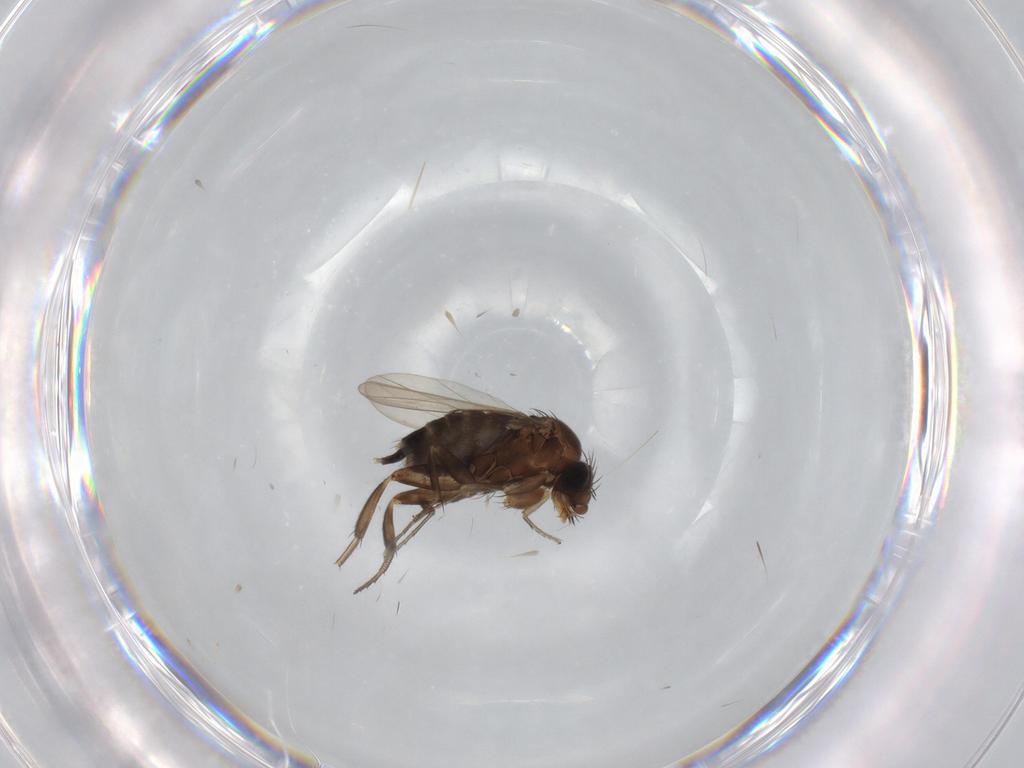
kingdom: Animalia
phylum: Arthropoda
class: Insecta
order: Diptera
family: Phoridae
